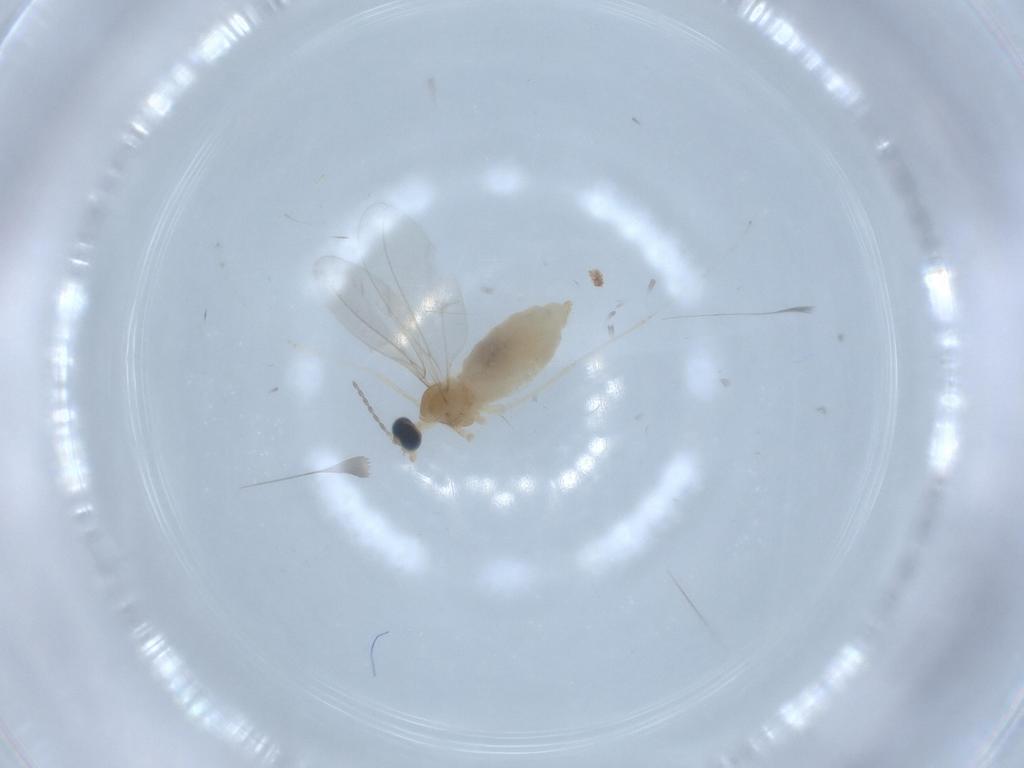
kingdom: Animalia
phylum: Arthropoda
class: Insecta
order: Diptera
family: Cecidomyiidae
